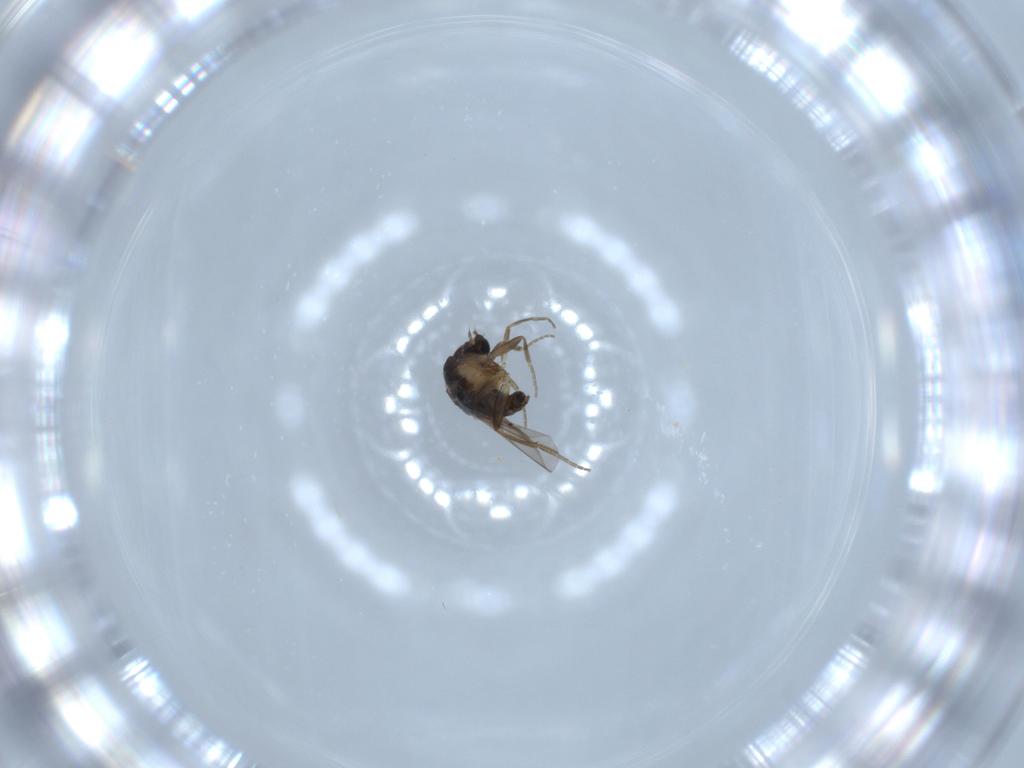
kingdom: Animalia
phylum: Arthropoda
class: Insecta
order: Diptera
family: Phoridae
